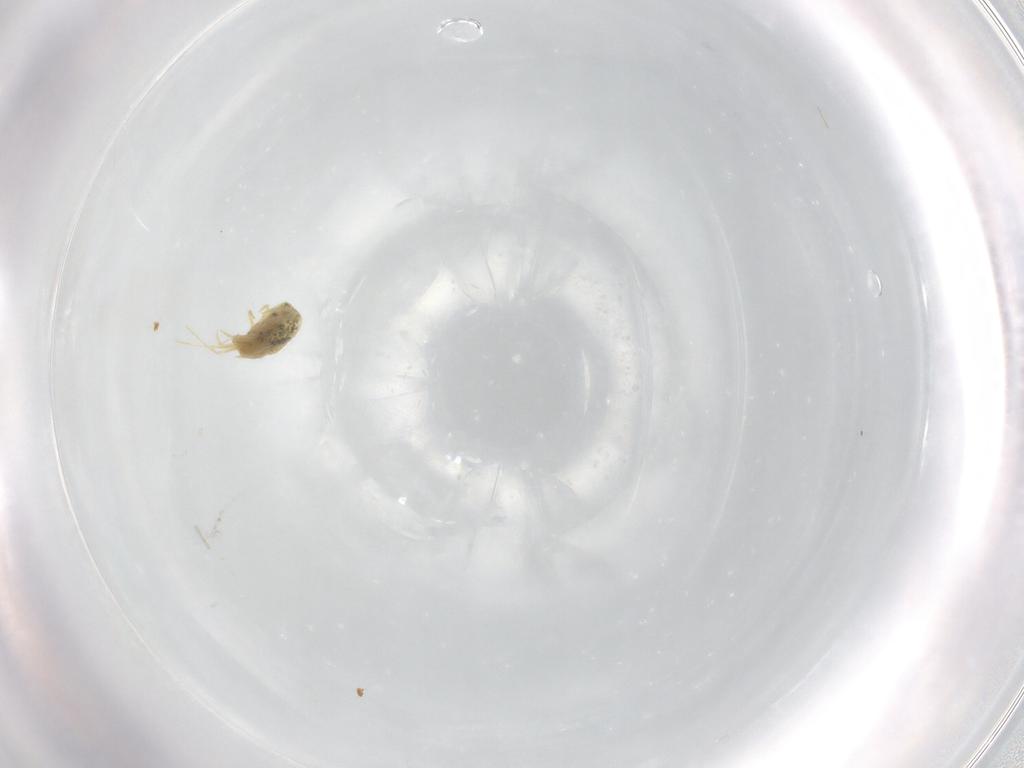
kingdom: Animalia
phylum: Arthropoda
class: Arachnida
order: Trombidiformes
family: Tetranychidae
